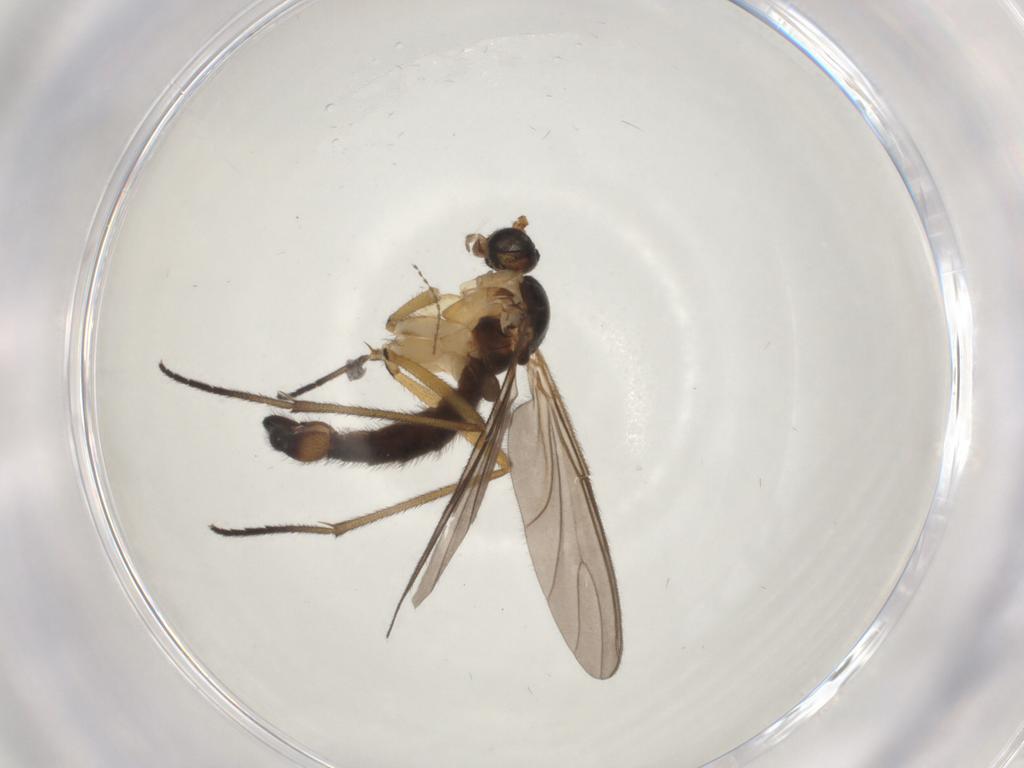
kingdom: Animalia
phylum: Arthropoda
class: Insecta
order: Diptera
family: Sciaridae
